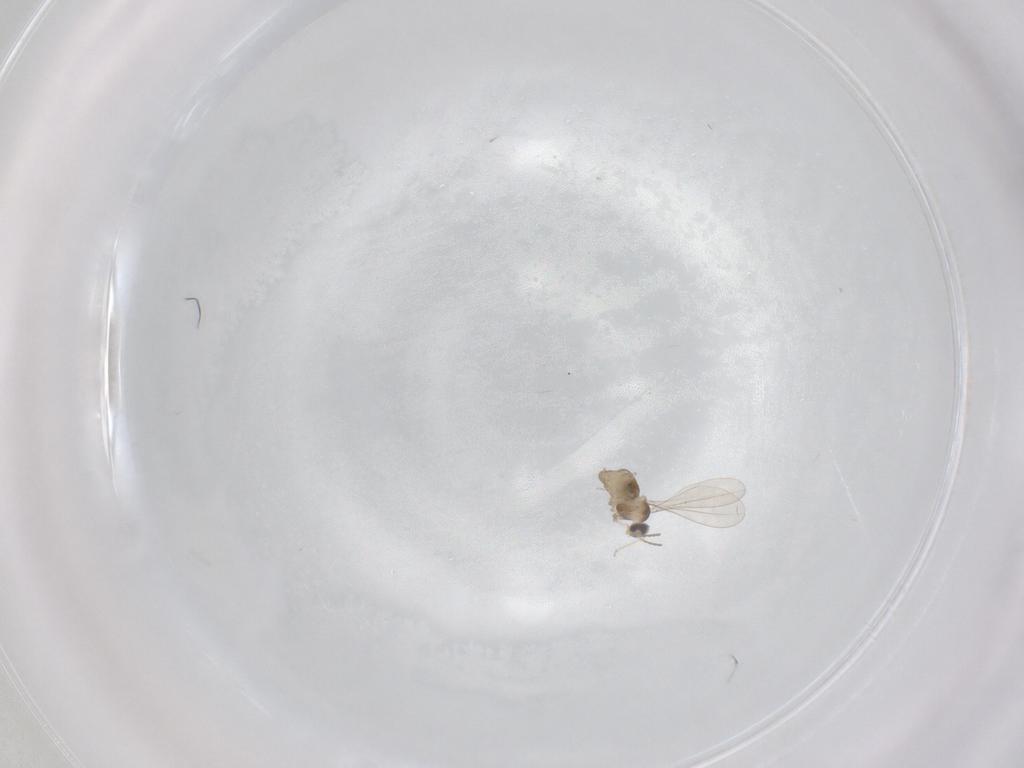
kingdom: Animalia
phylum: Arthropoda
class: Insecta
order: Diptera
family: Cecidomyiidae
